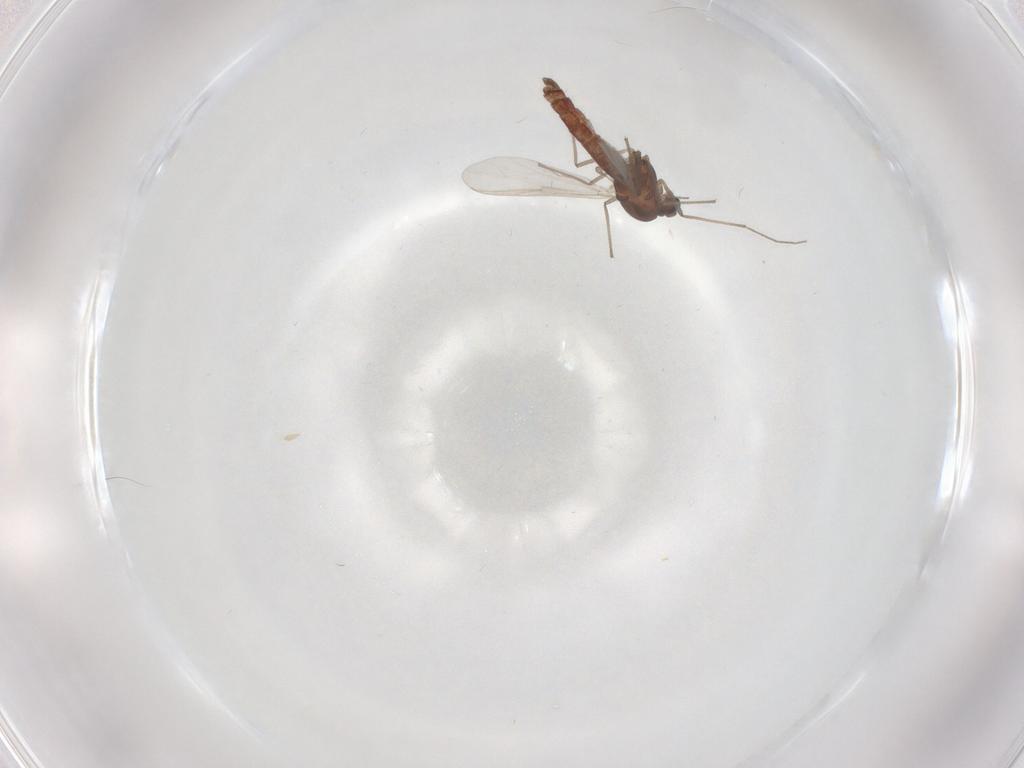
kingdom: Animalia
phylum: Arthropoda
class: Insecta
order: Diptera
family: Chironomidae
